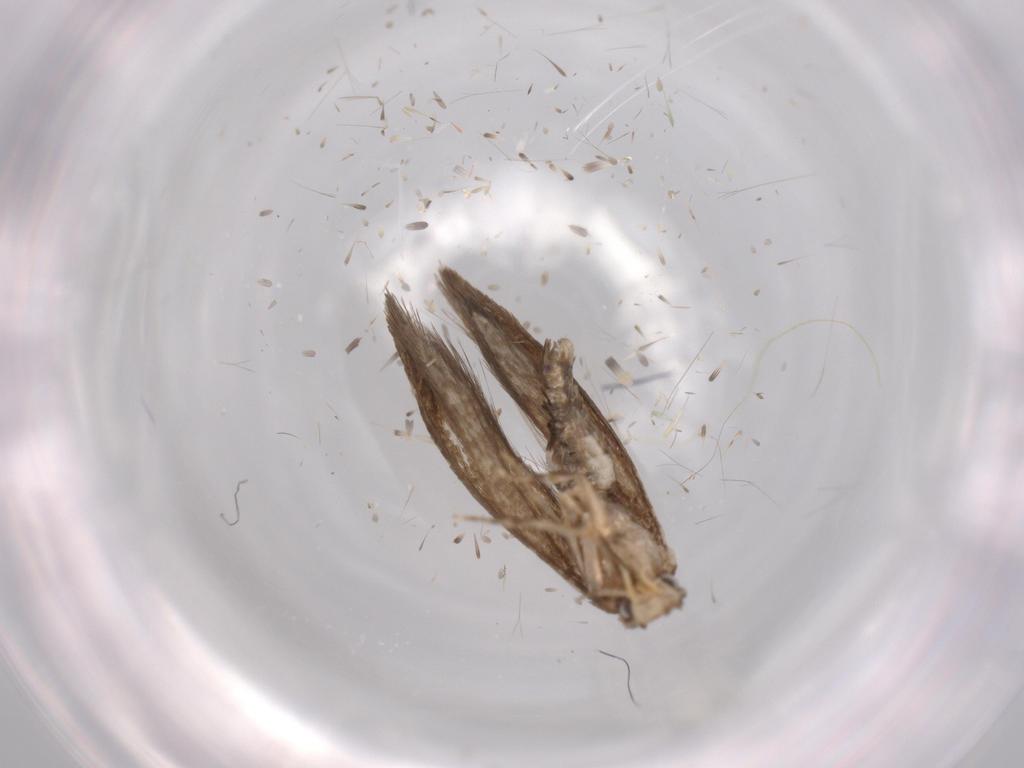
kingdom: Animalia
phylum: Arthropoda
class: Insecta
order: Lepidoptera
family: Tineidae
